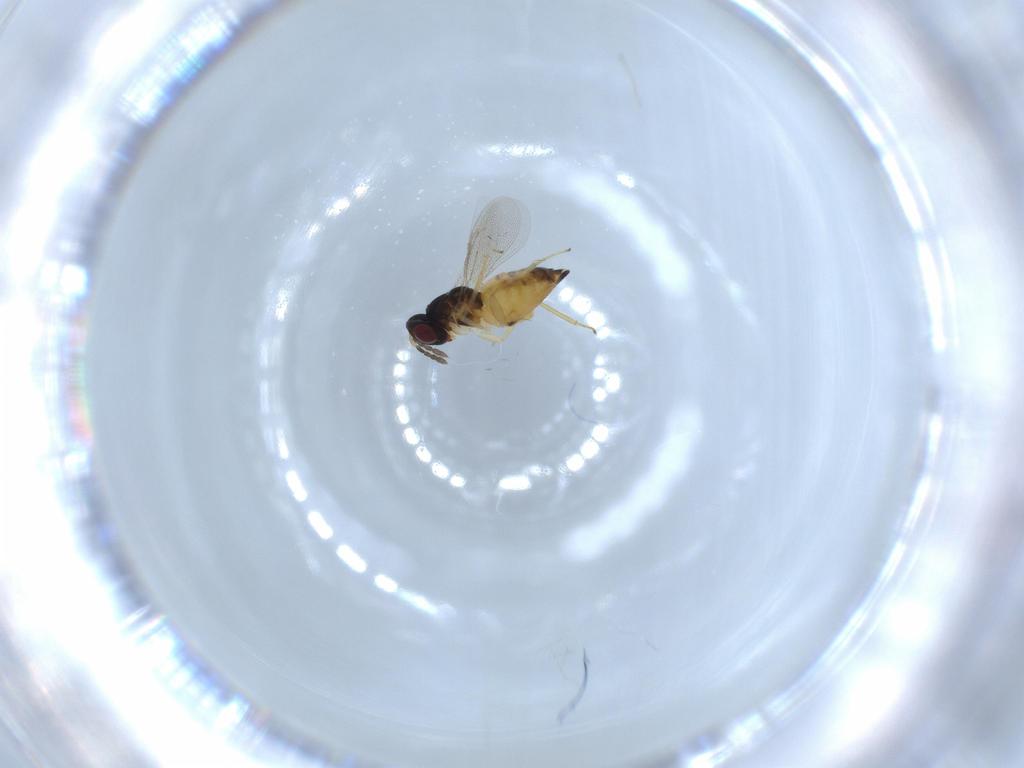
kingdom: Animalia
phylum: Arthropoda
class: Insecta
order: Hymenoptera
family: Eulophidae
